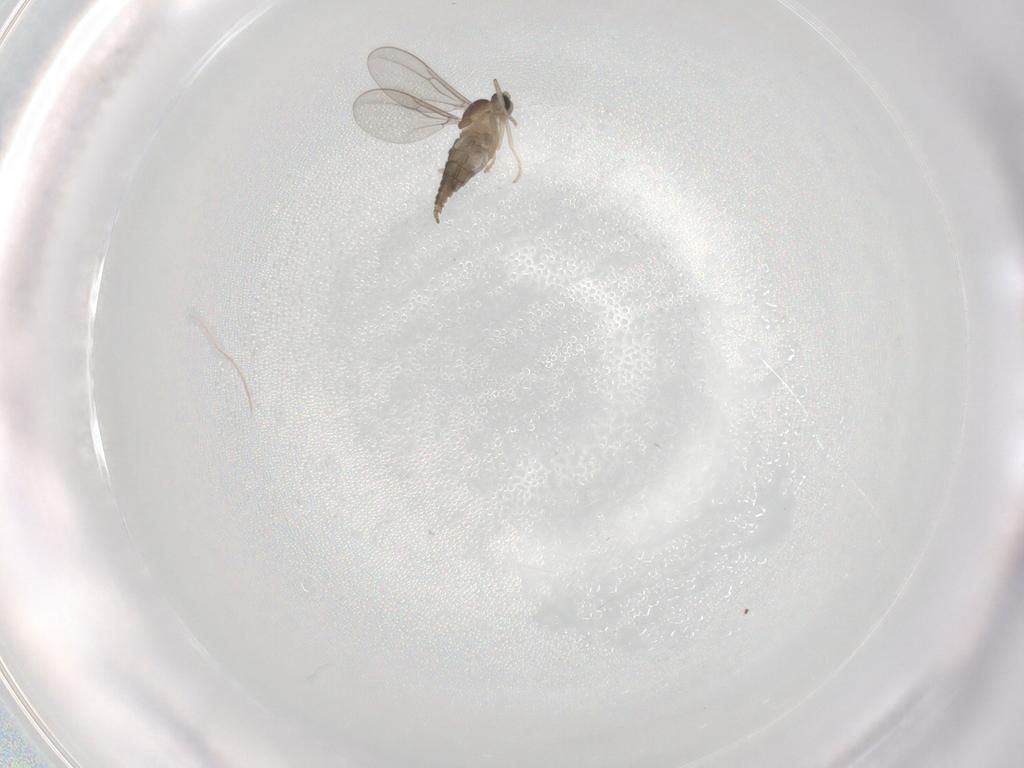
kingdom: Animalia
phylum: Arthropoda
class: Insecta
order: Diptera
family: Cecidomyiidae
